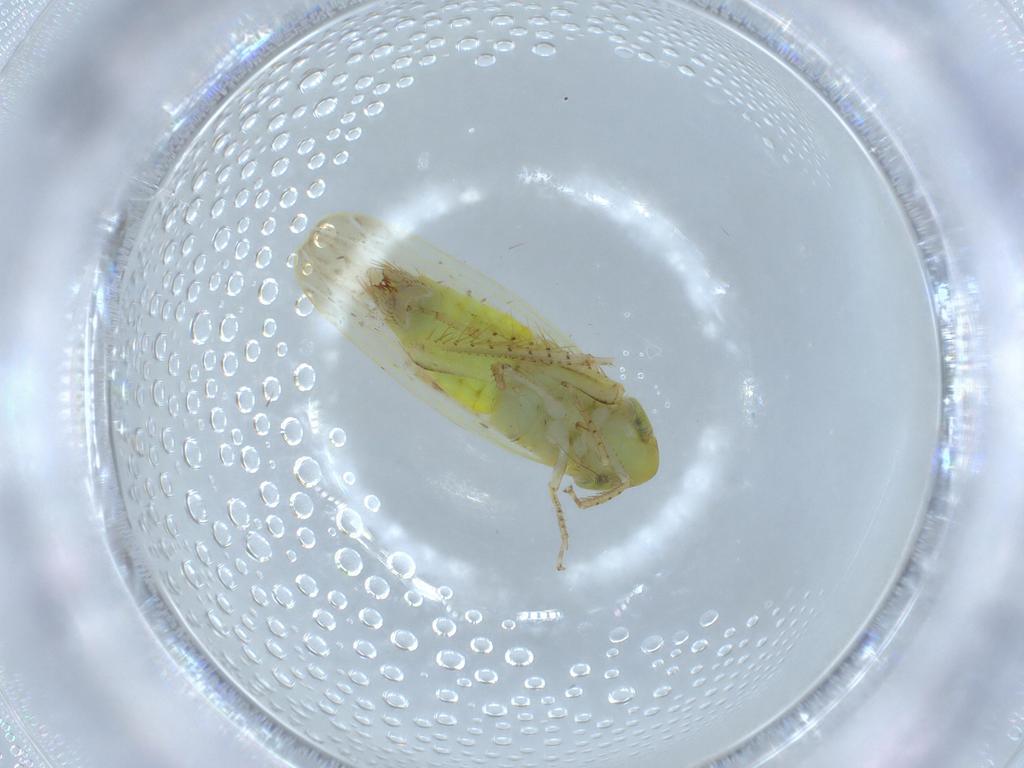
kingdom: Animalia
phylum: Arthropoda
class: Insecta
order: Hemiptera
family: Cicadellidae
